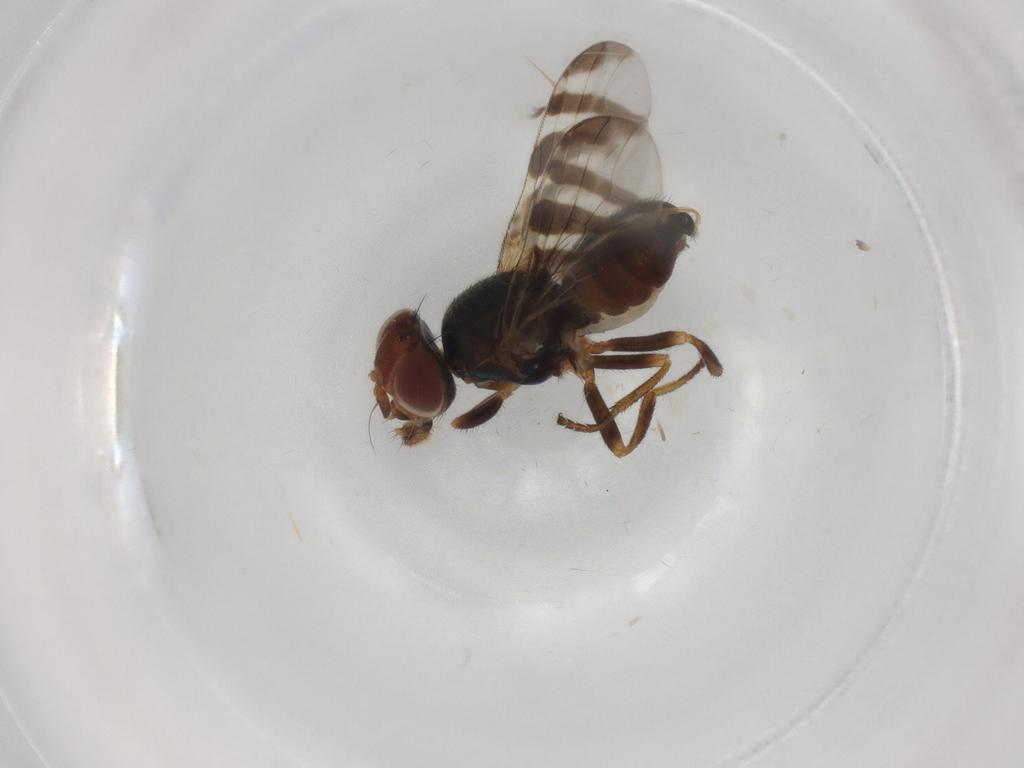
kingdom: Animalia
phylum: Arthropoda
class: Insecta
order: Diptera
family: Platystomatidae
